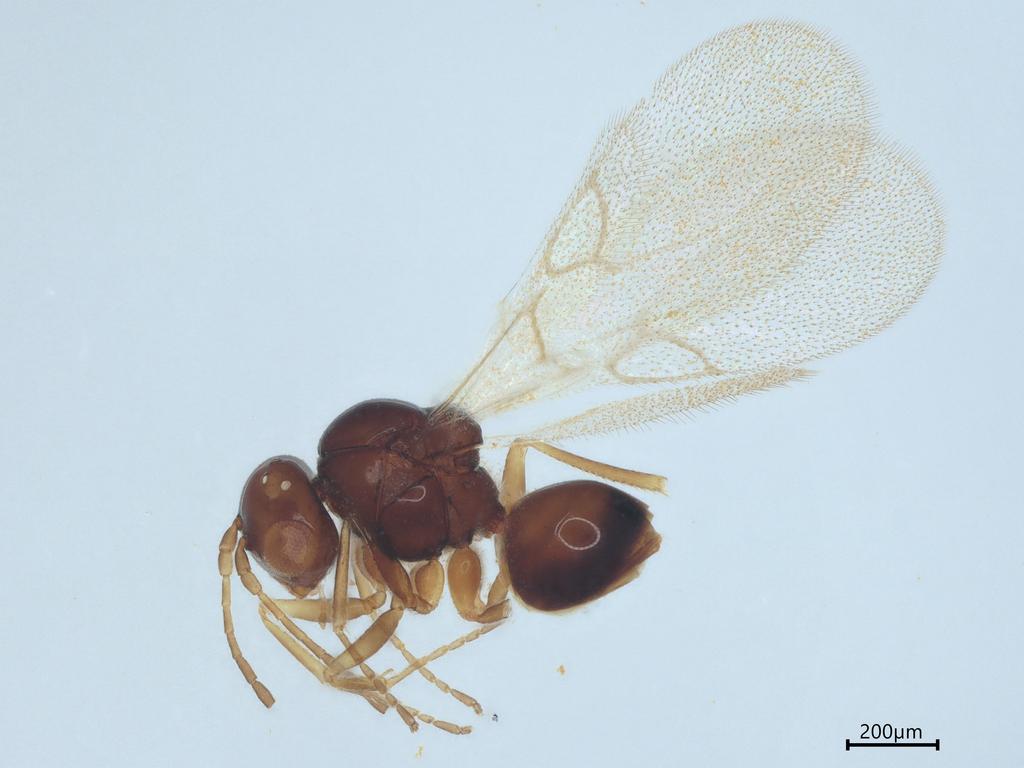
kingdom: Animalia
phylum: Arthropoda
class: Insecta
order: Hymenoptera
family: Figitidae
